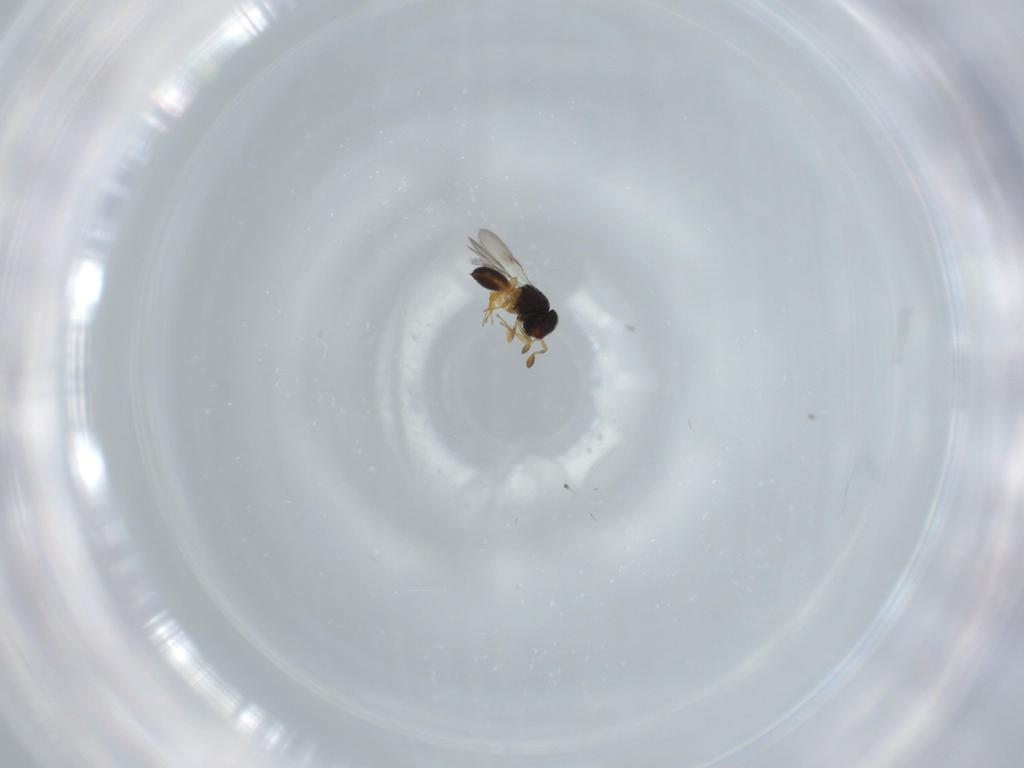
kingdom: Animalia
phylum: Arthropoda
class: Insecta
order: Hymenoptera
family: Scelionidae
